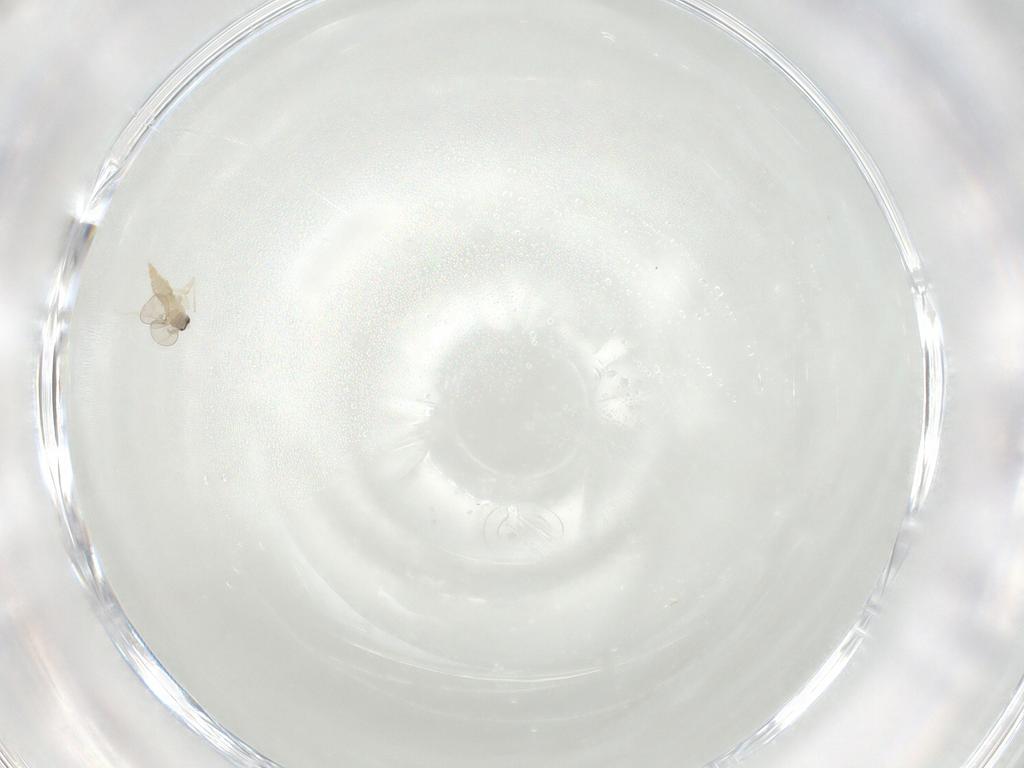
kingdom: Animalia
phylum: Arthropoda
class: Insecta
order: Diptera
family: Cecidomyiidae
